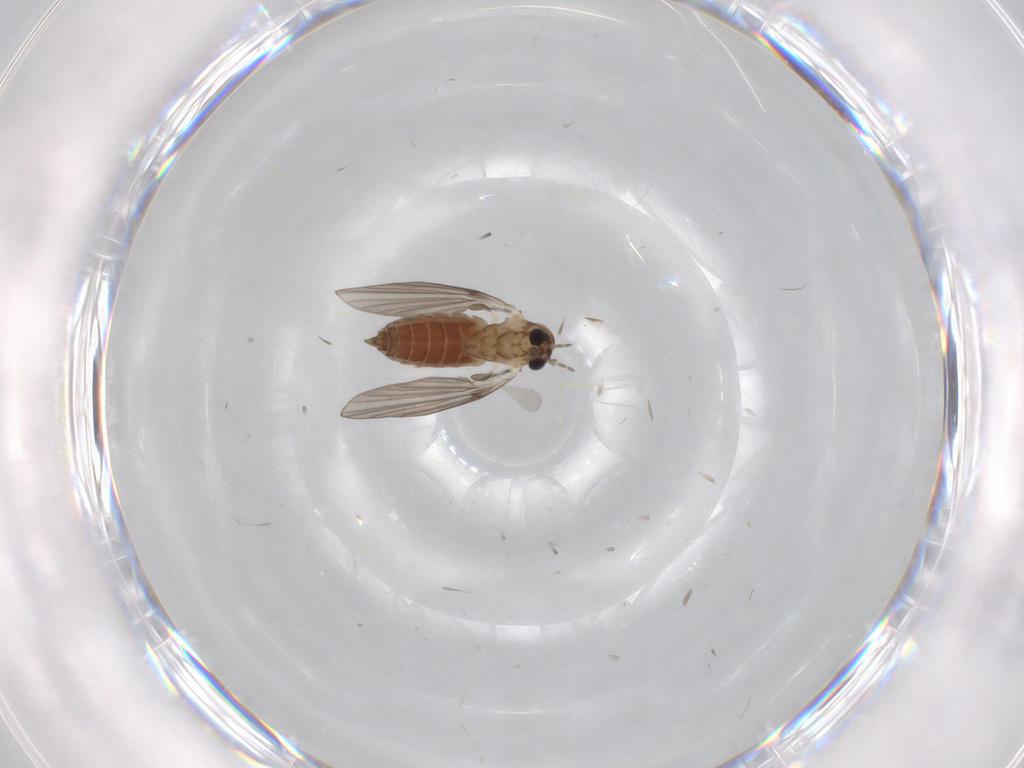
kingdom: Animalia
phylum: Arthropoda
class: Insecta
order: Diptera
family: Chironomidae
